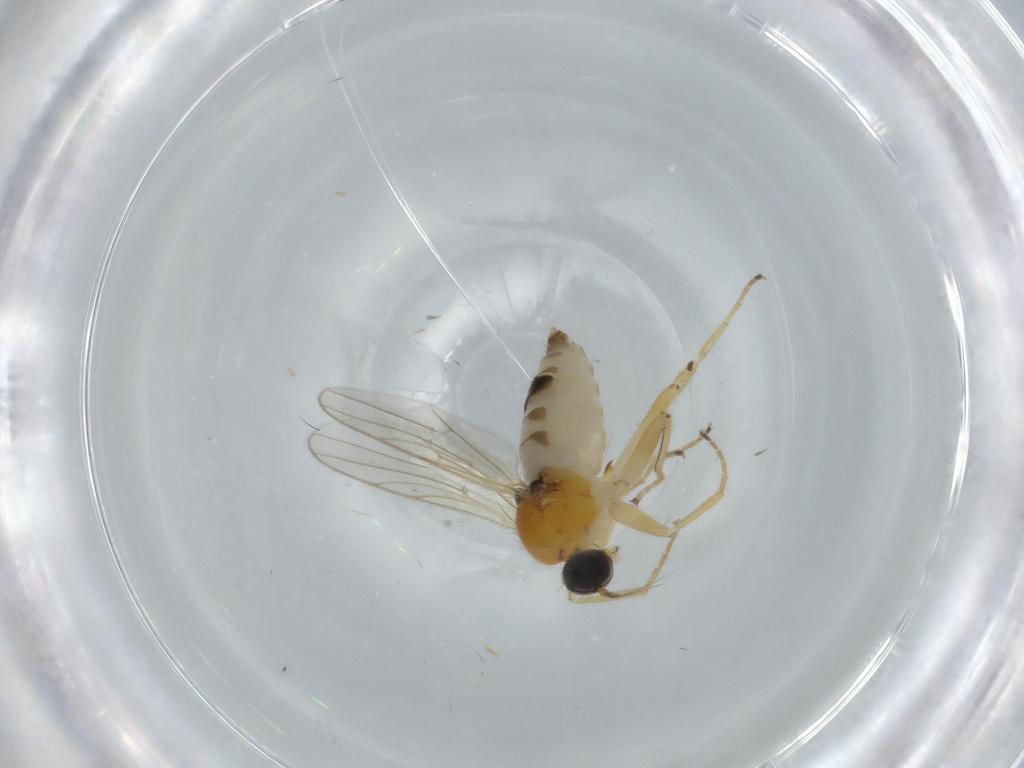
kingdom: Animalia
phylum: Arthropoda
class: Insecta
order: Diptera
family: Hybotidae
